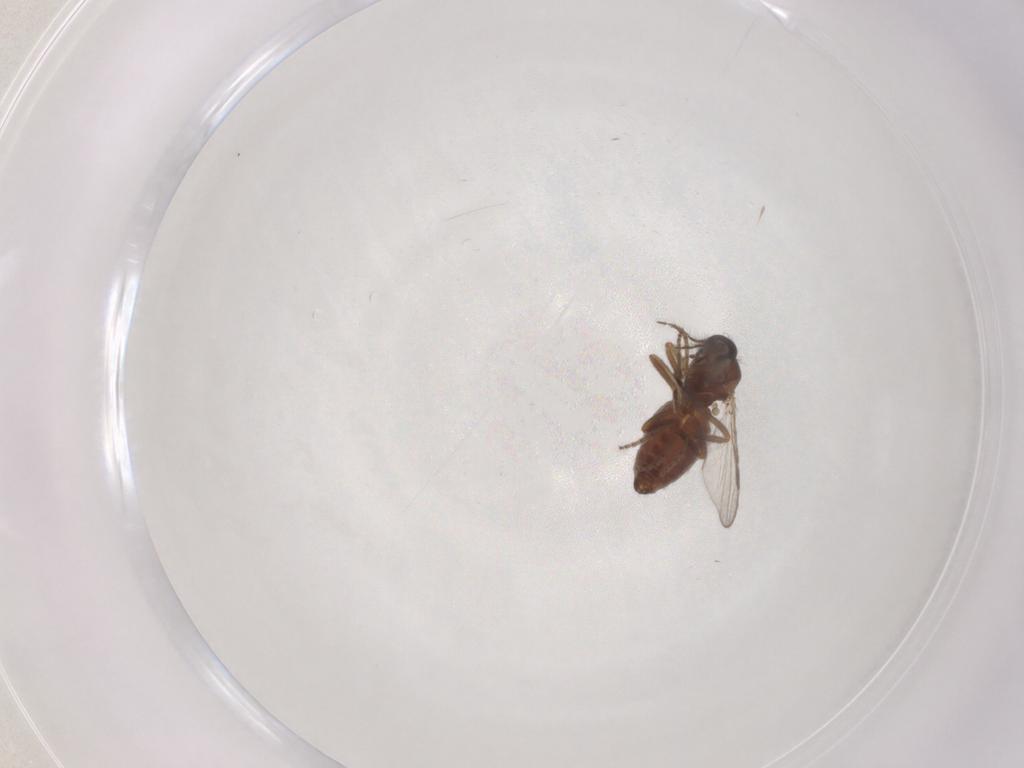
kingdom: Animalia
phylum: Arthropoda
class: Insecta
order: Diptera
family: Ceratopogonidae
